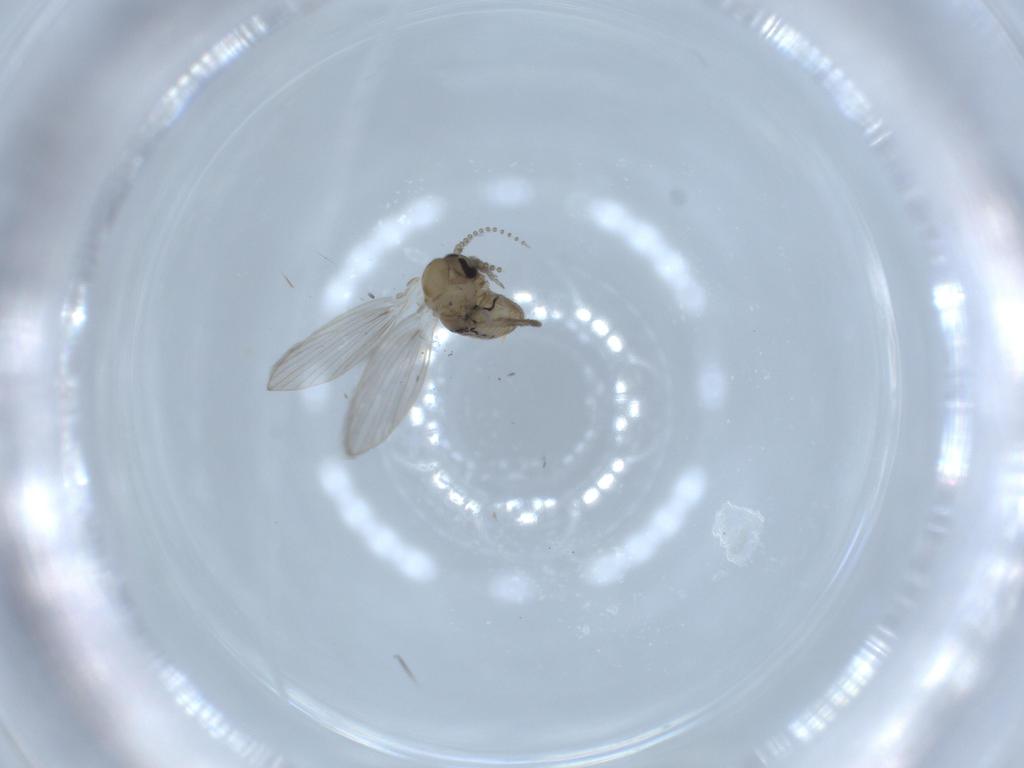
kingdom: Animalia
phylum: Arthropoda
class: Insecta
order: Diptera
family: Psychodidae
